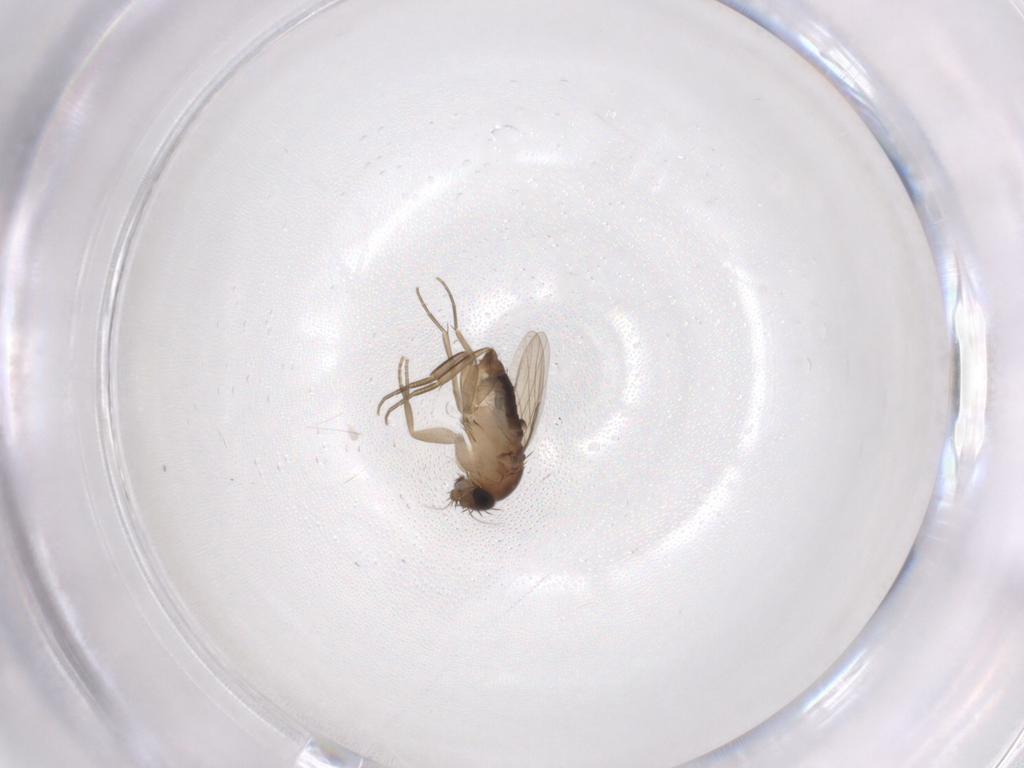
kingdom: Animalia
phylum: Arthropoda
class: Insecta
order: Diptera
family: Phoridae
